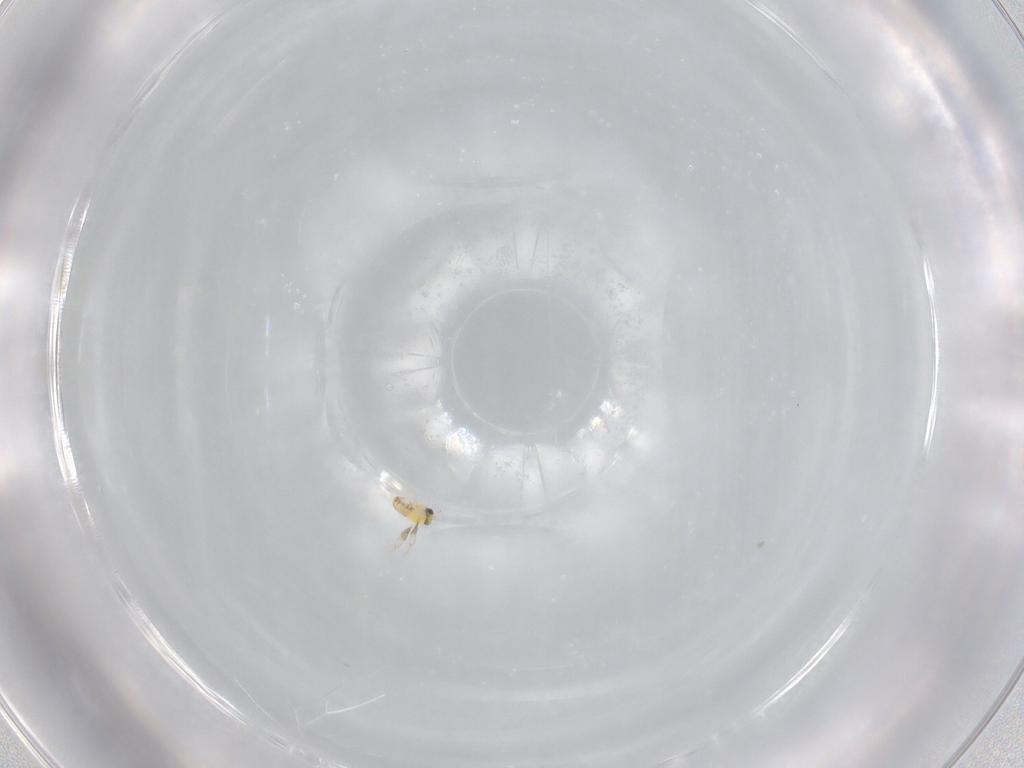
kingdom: Animalia
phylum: Arthropoda
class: Insecta
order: Hymenoptera
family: Trichogrammatidae
